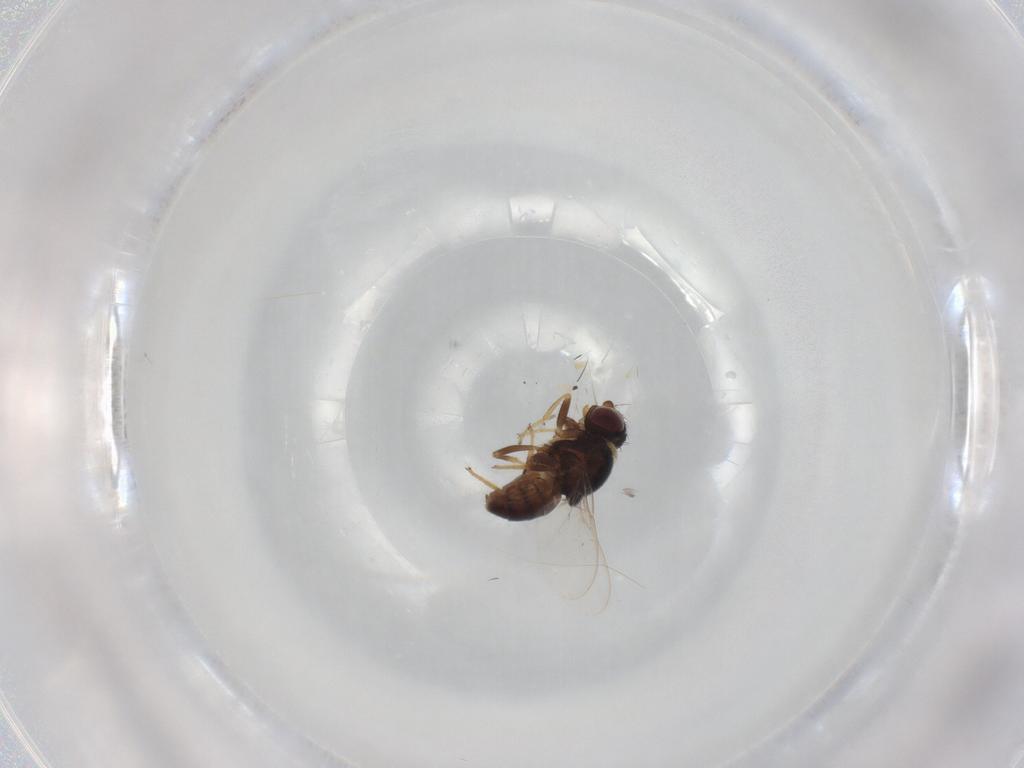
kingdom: Animalia
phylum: Arthropoda
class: Insecta
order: Diptera
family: Chloropidae
